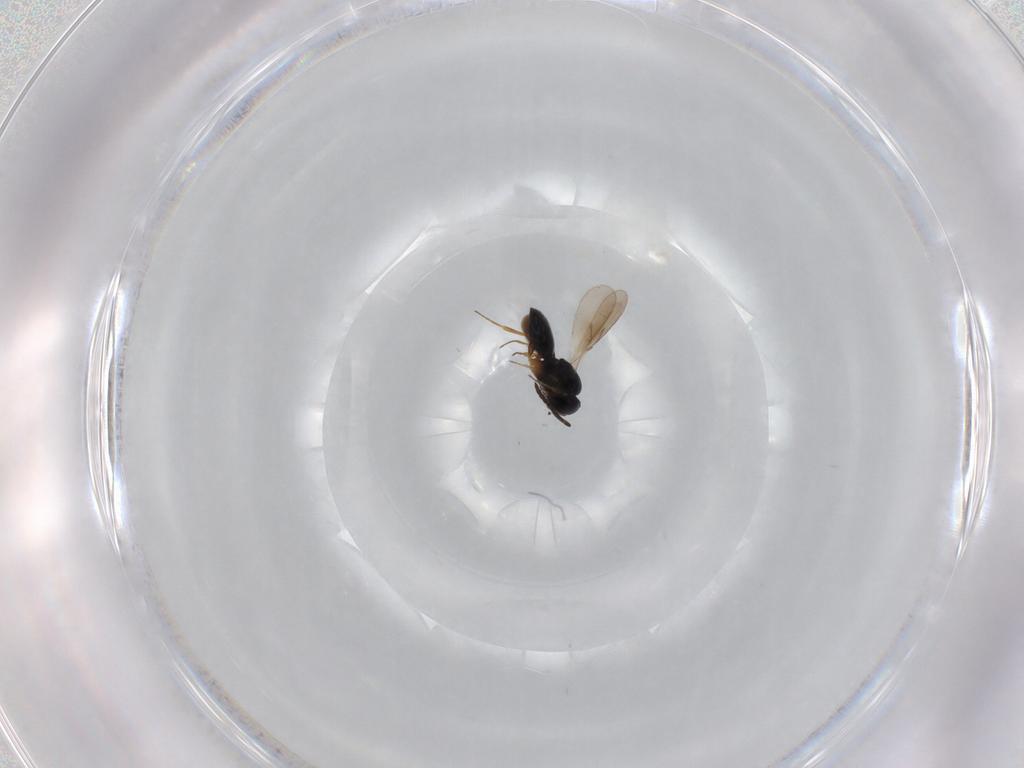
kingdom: Animalia
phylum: Arthropoda
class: Insecta
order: Hymenoptera
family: Scelionidae
